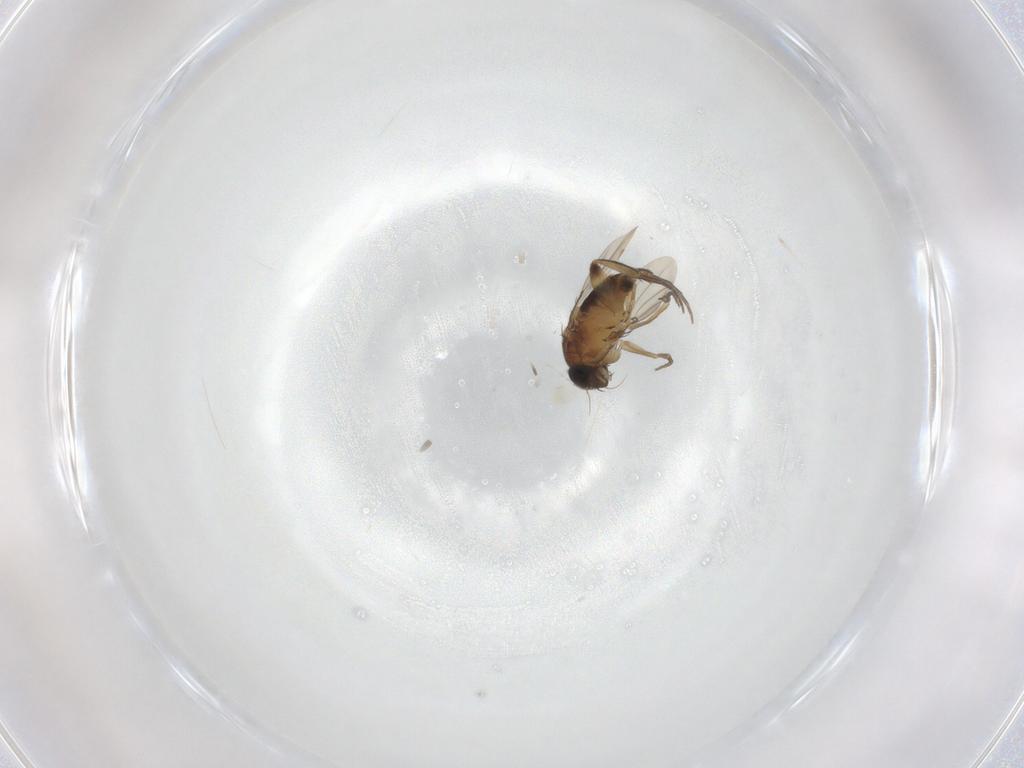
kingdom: Animalia
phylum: Arthropoda
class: Insecta
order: Diptera
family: Phoridae
